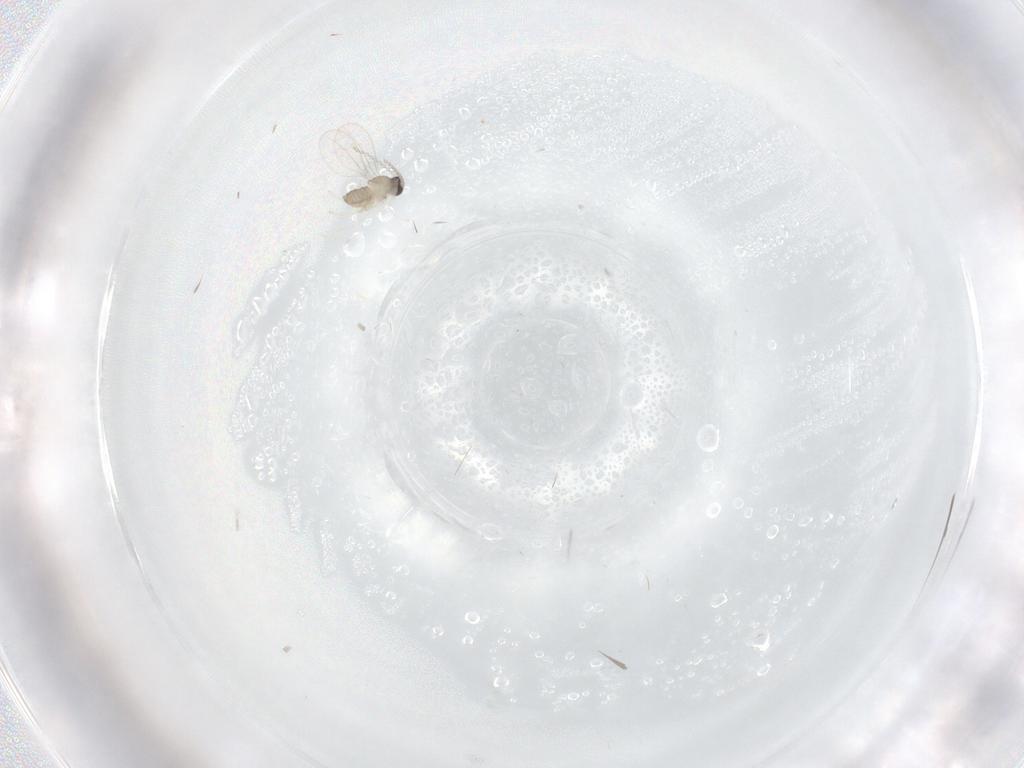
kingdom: Animalia
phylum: Arthropoda
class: Insecta
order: Diptera
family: Cecidomyiidae
